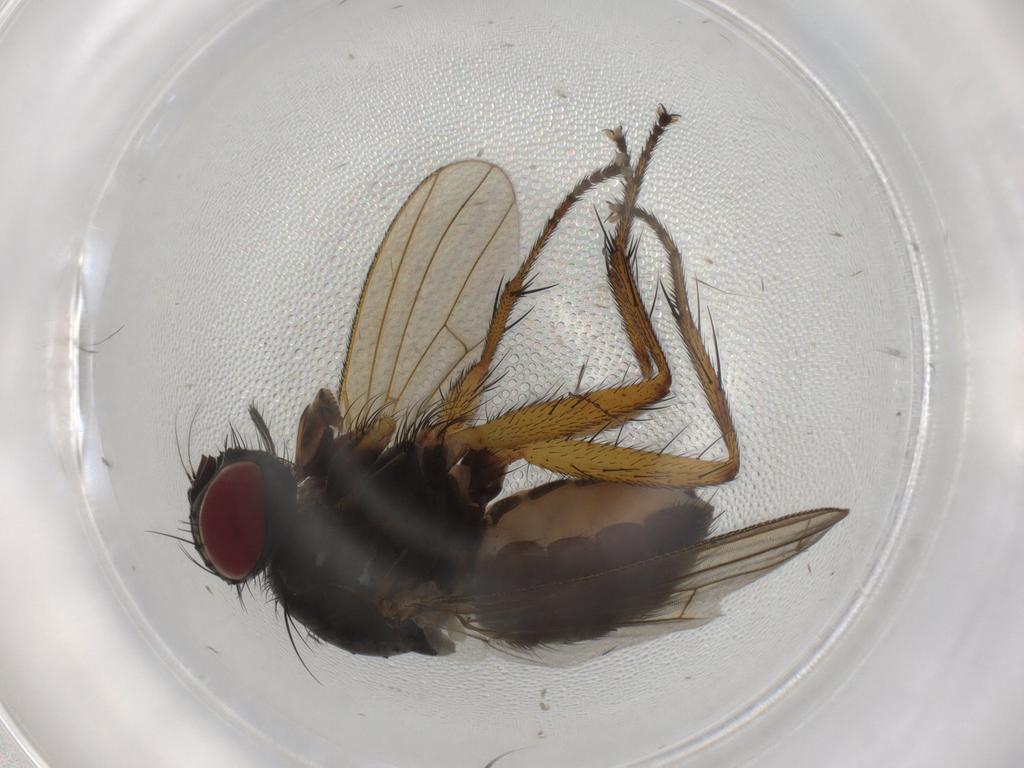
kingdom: Animalia
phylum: Arthropoda
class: Insecta
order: Diptera
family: Muscidae
